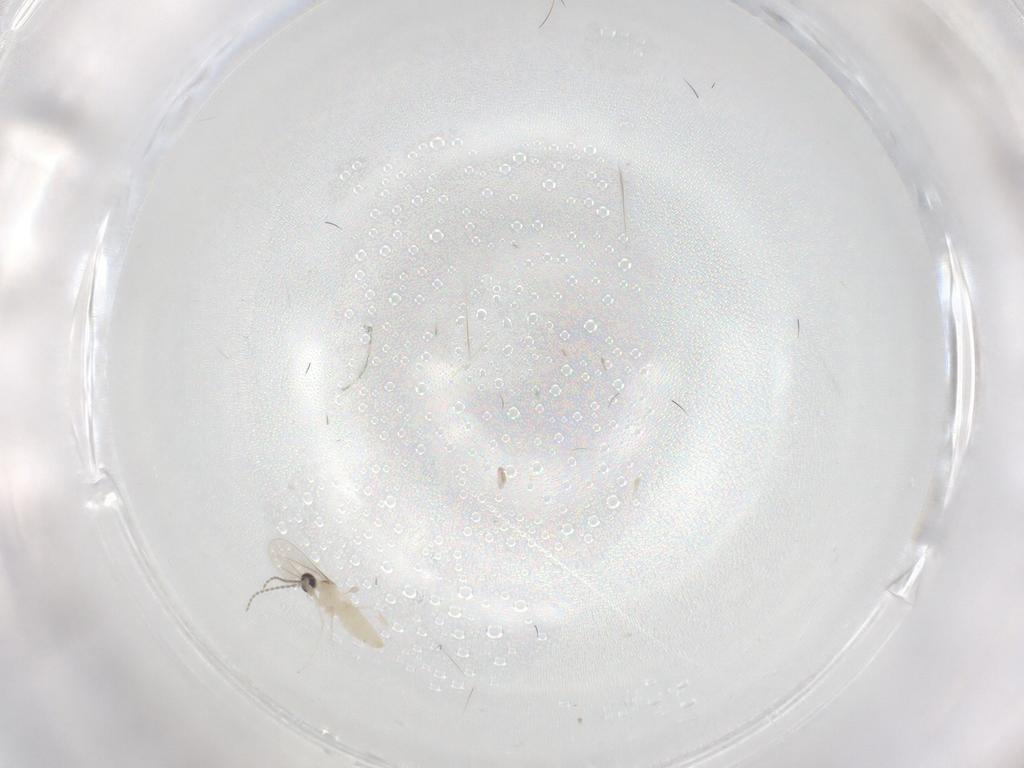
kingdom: Animalia
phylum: Arthropoda
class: Insecta
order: Diptera
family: Cecidomyiidae
